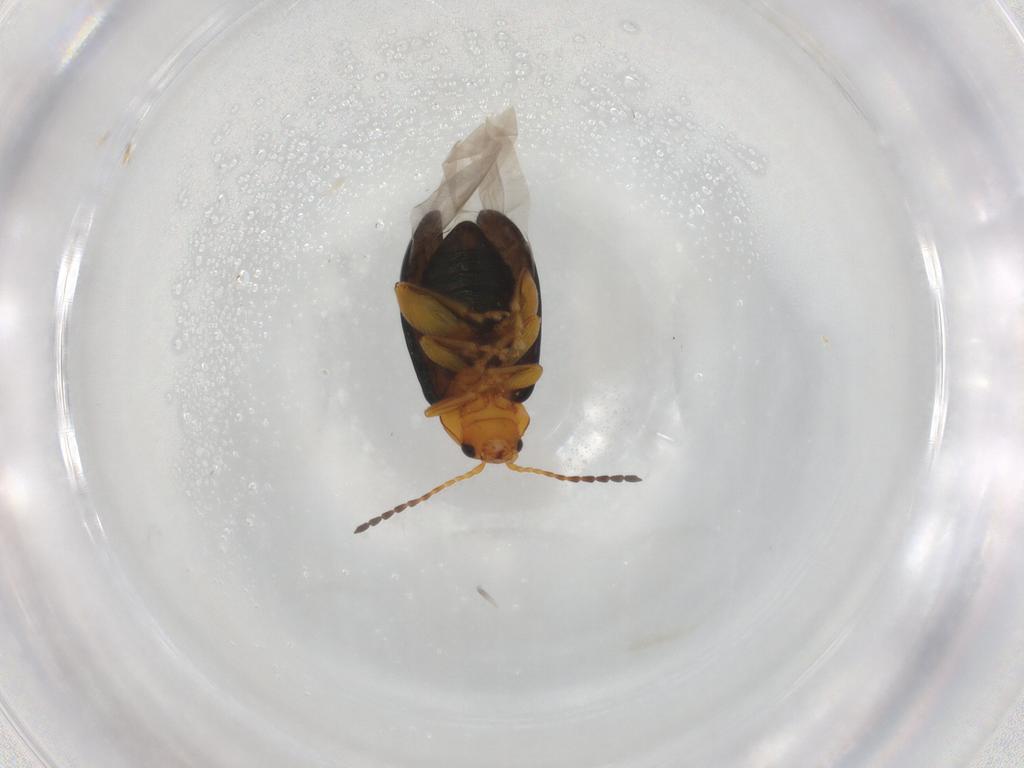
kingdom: Animalia
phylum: Arthropoda
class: Insecta
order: Coleoptera
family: Chrysomelidae
